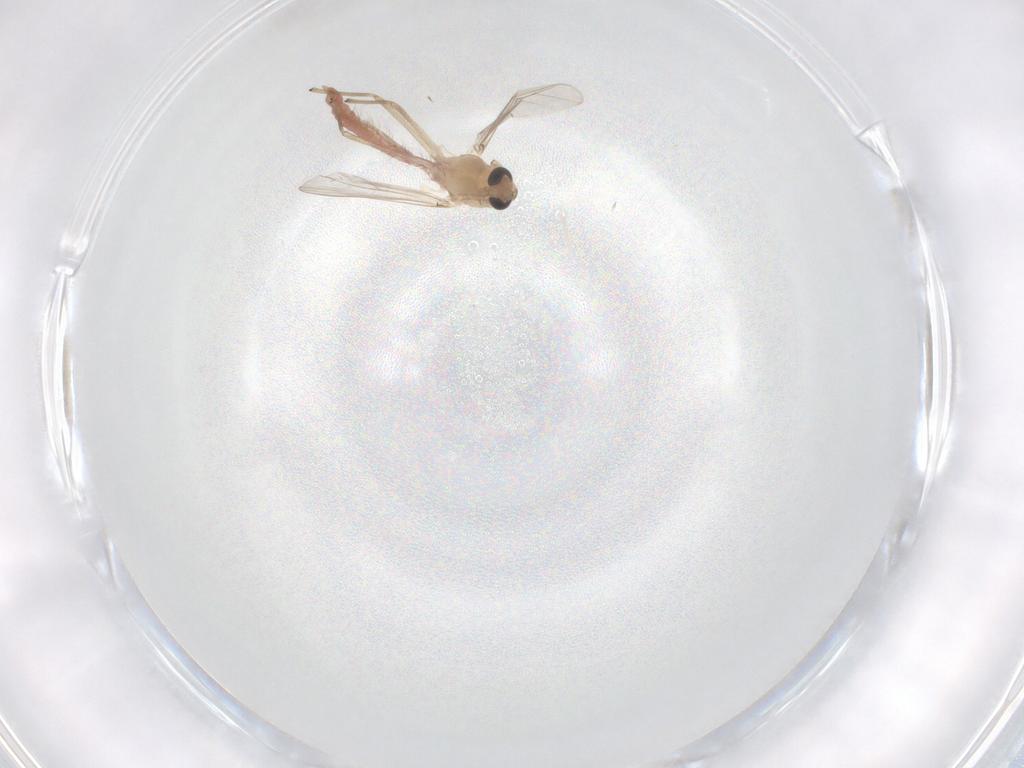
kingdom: Animalia
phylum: Arthropoda
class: Insecta
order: Diptera
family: Chironomidae
